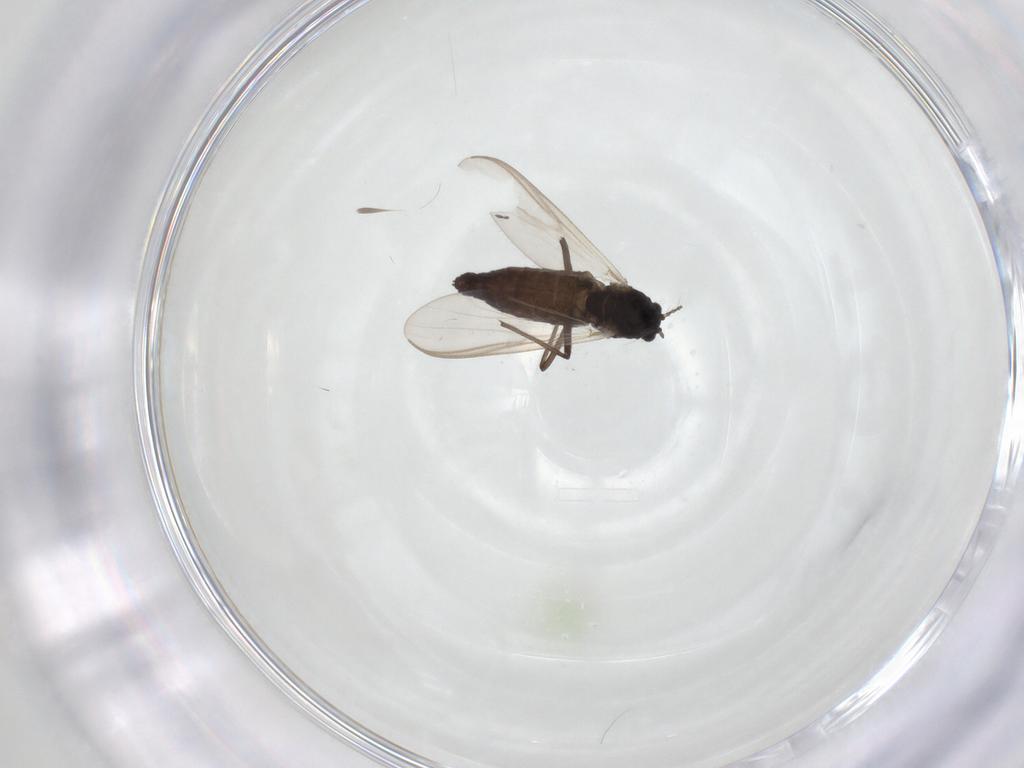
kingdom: Animalia
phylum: Arthropoda
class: Insecta
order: Diptera
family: Chironomidae
